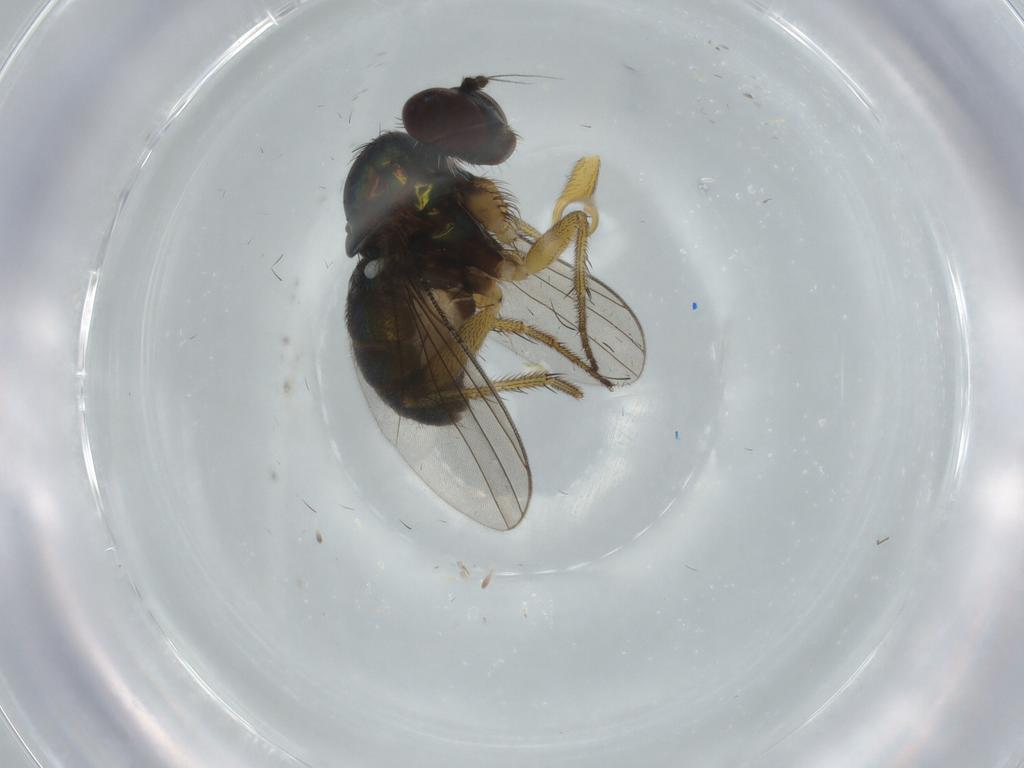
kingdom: Animalia
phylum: Arthropoda
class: Insecta
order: Diptera
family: Dolichopodidae
